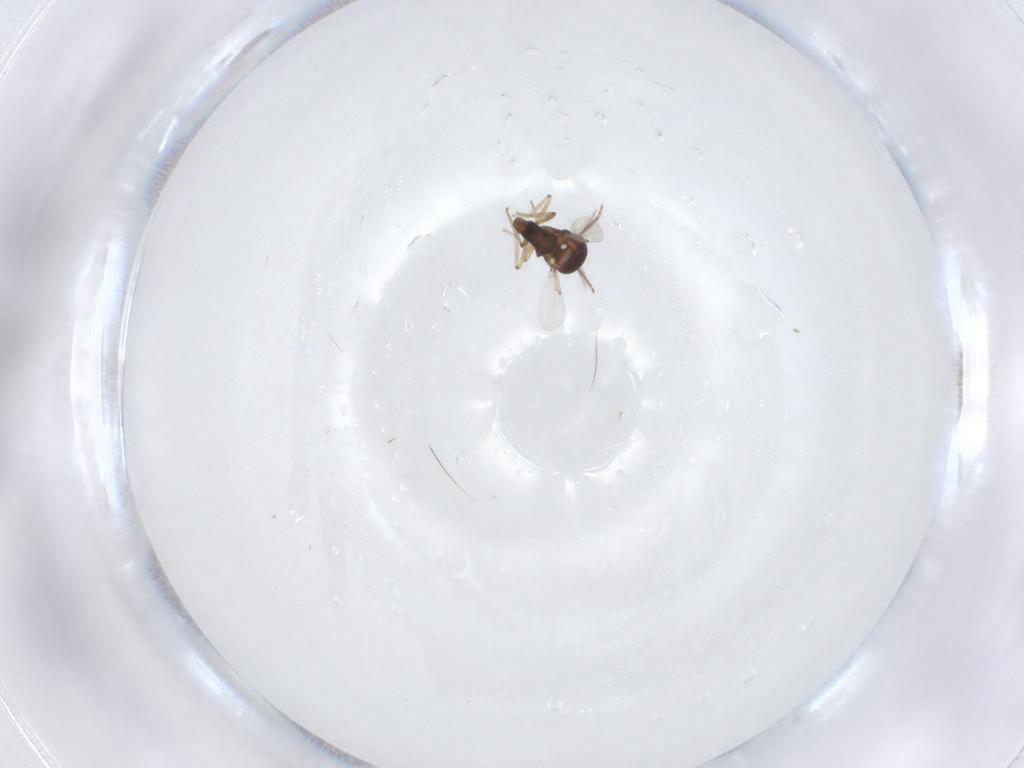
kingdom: Animalia
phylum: Arthropoda
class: Insecta
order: Diptera
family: Ceratopogonidae
